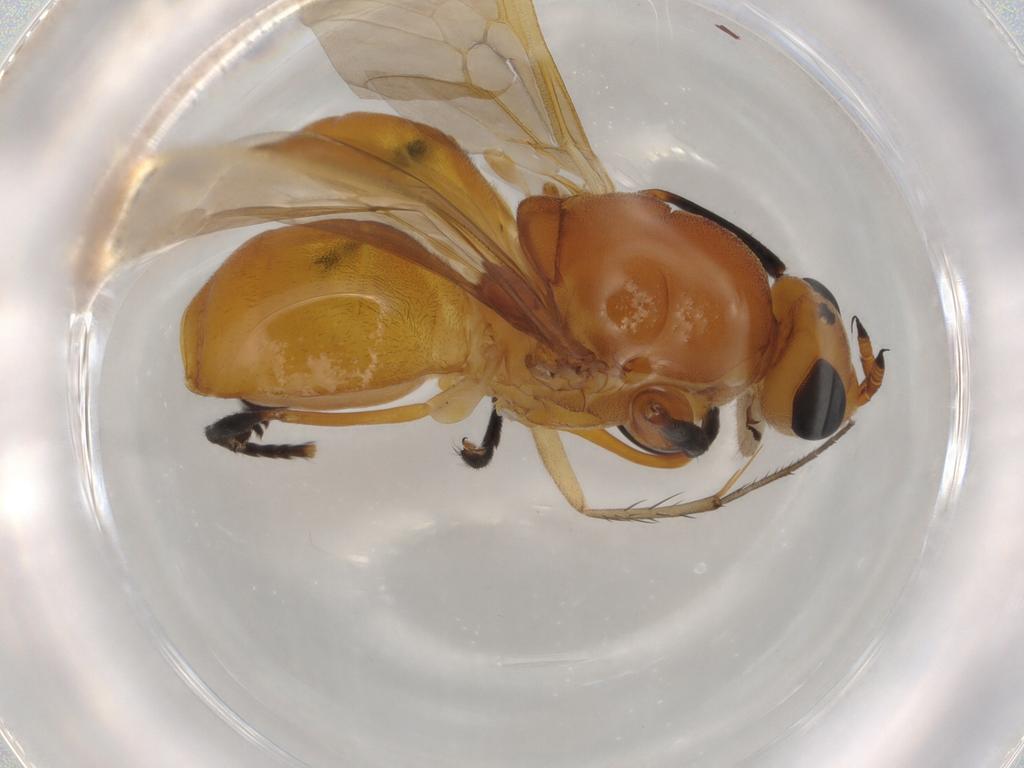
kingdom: Animalia
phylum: Arthropoda
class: Insecta
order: Diptera
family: Mycetophilidae
